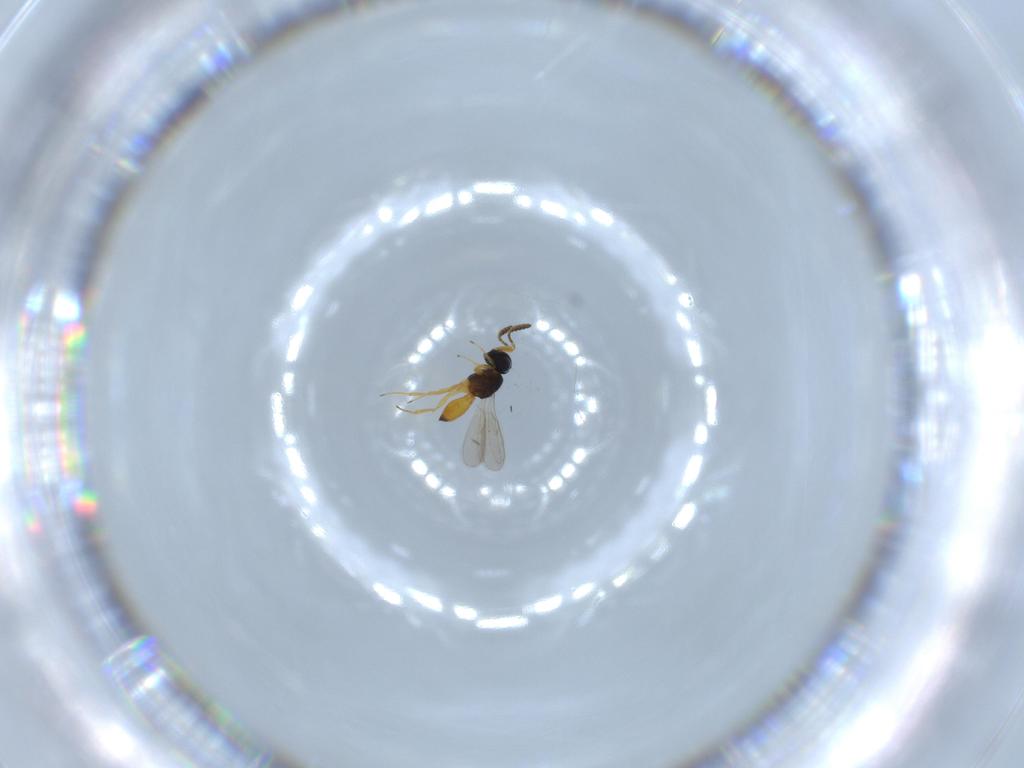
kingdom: Animalia
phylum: Arthropoda
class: Insecta
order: Hymenoptera
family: Scelionidae
